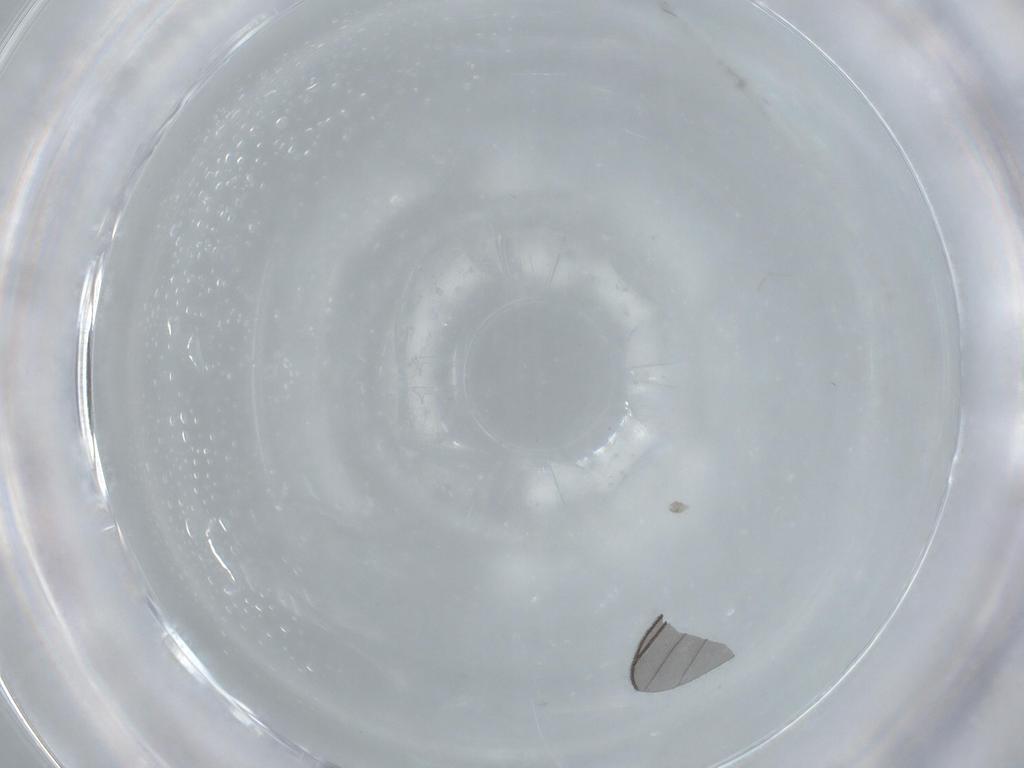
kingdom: Animalia
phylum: Arthropoda
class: Insecta
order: Diptera
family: Sciaridae
